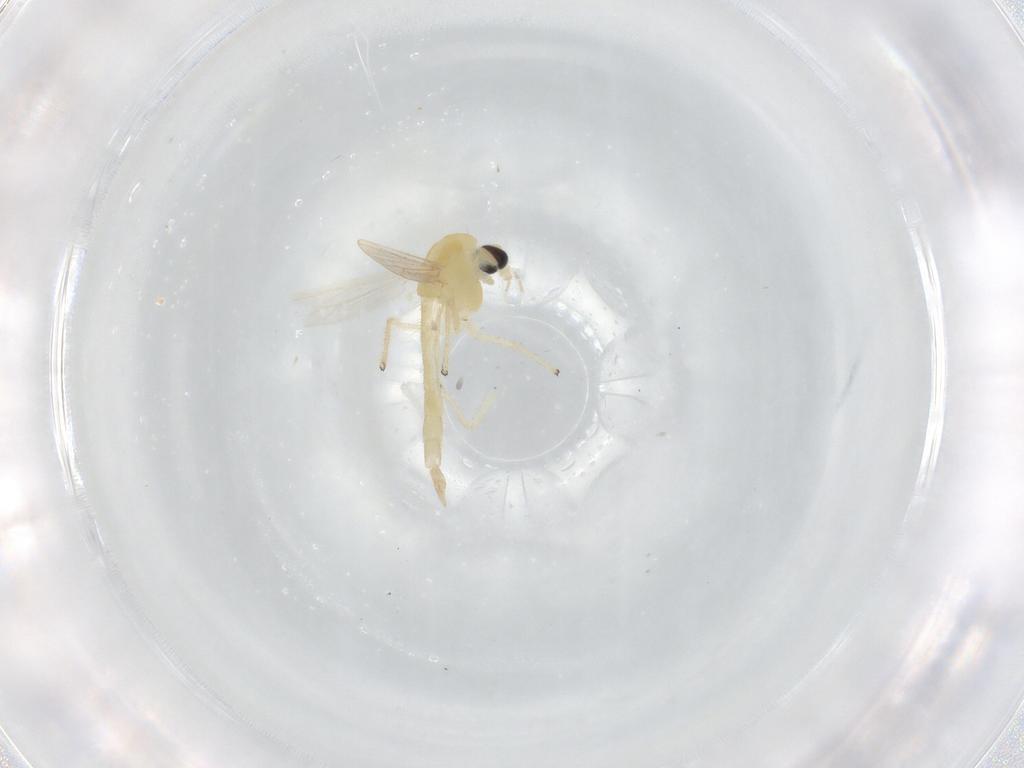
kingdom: Animalia
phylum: Arthropoda
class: Insecta
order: Diptera
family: Chironomidae
